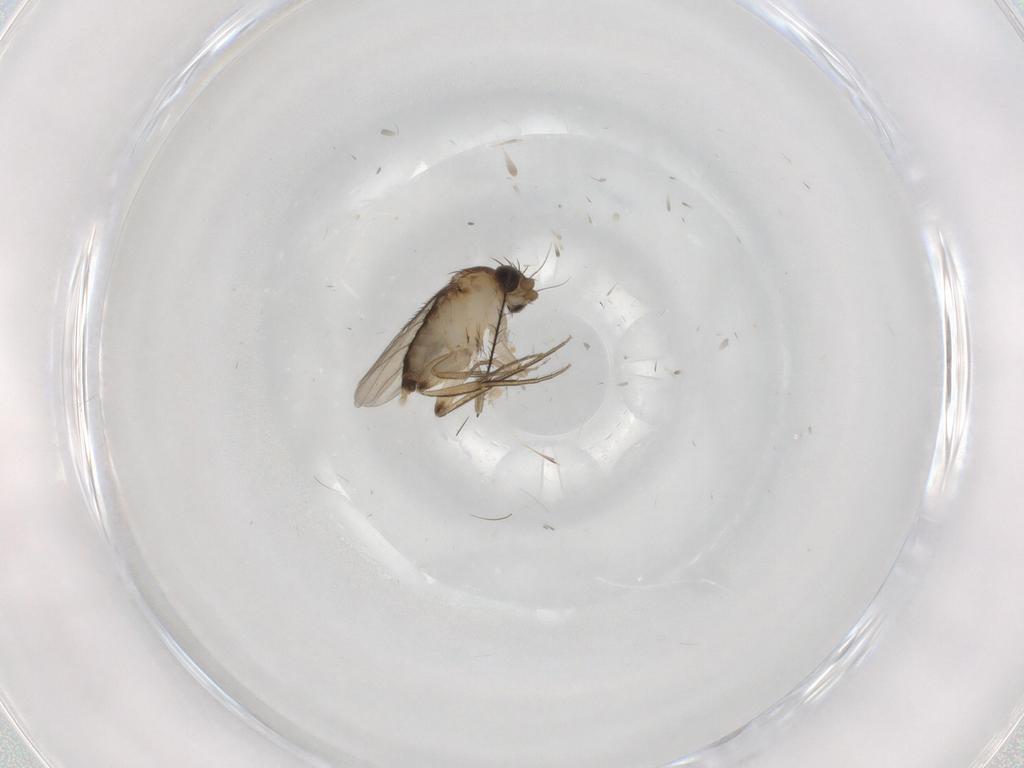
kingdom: Animalia
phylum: Arthropoda
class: Insecta
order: Diptera
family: Phoridae
